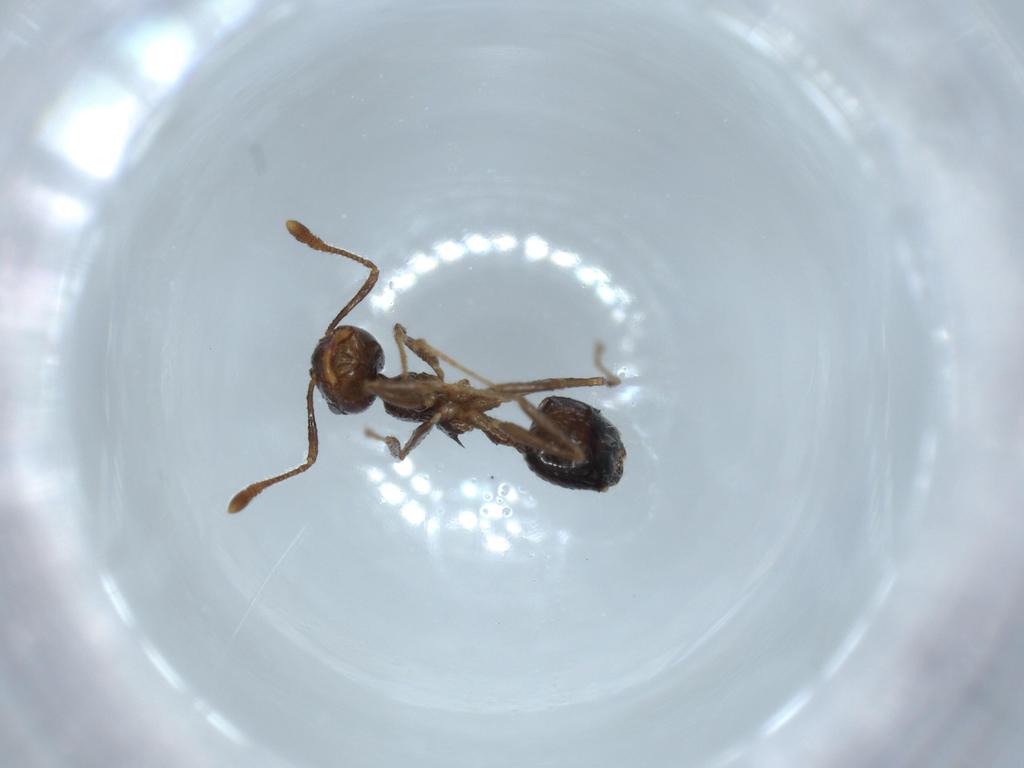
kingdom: Animalia
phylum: Arthropoda
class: Insecta
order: Hymenoptera
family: Formicidae
